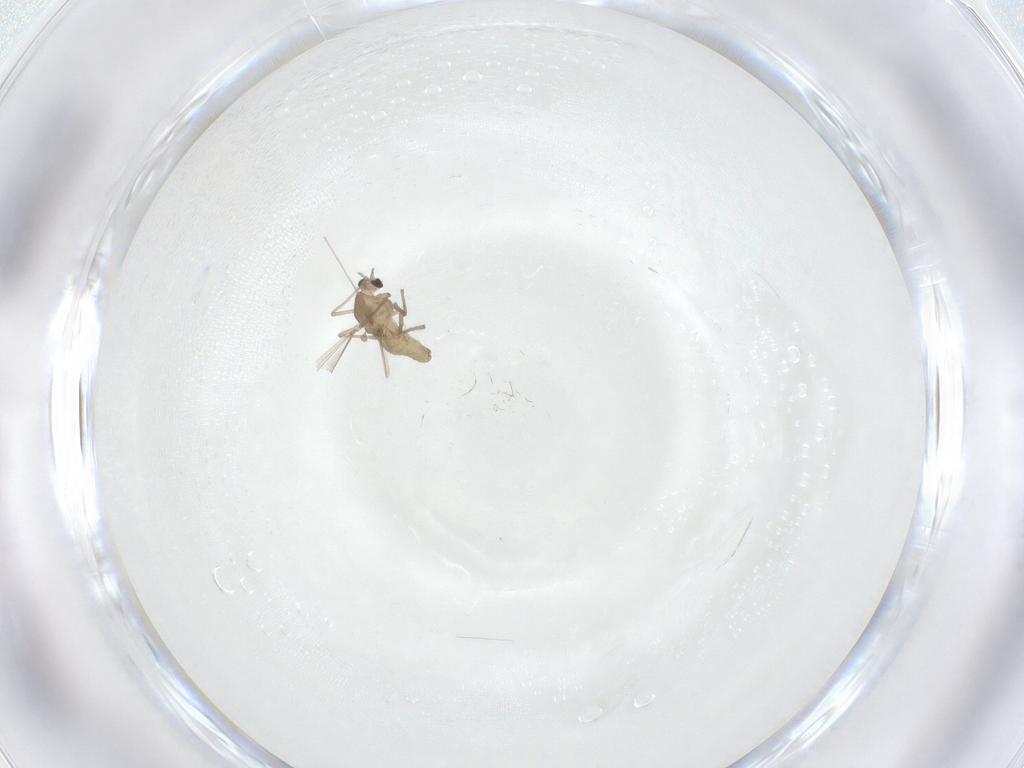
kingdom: Animalia
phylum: Arthropoda
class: Insecta
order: Diptera
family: Chironomidae
